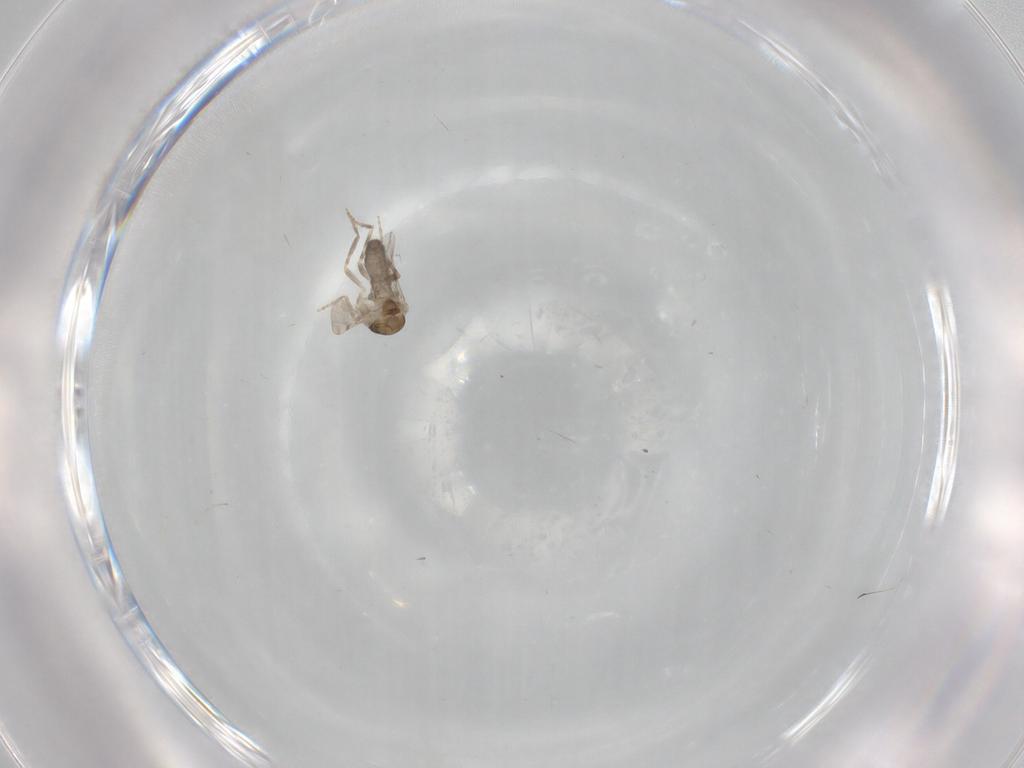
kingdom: Animalia
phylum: Arthropoda
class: Insecta
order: Diptera
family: Ceratopogonidae
